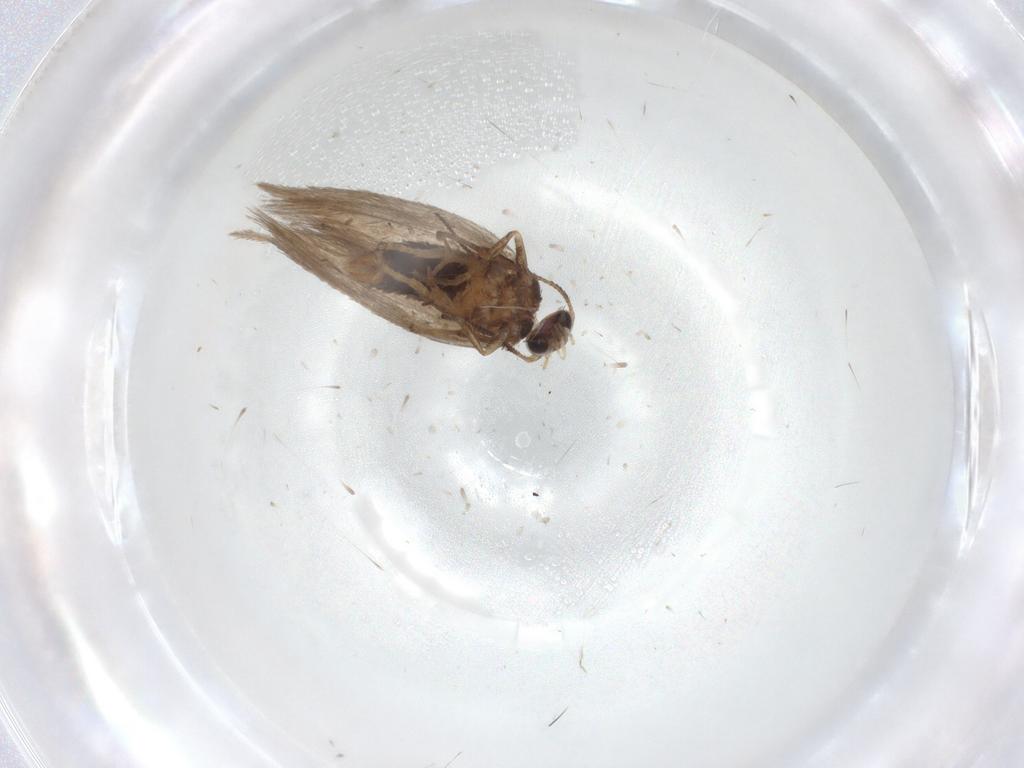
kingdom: Animalia
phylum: Arthropoda
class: Insecta
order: Lepidoptera
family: Nepticulidae
